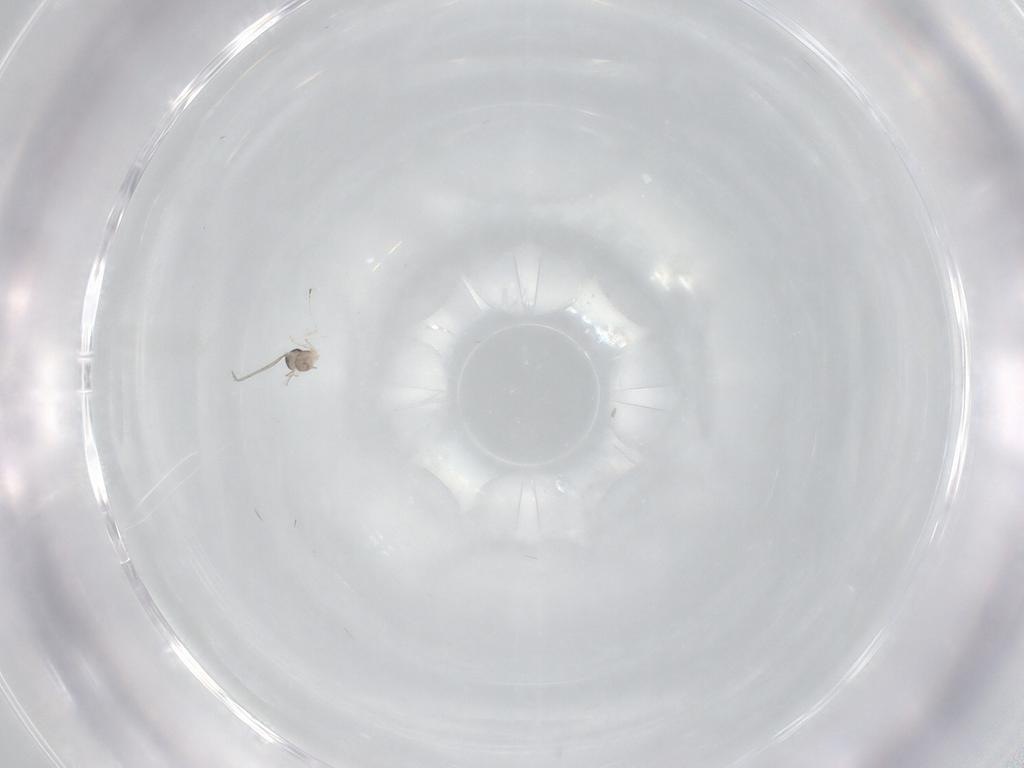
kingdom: Animalia
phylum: Arthropoda
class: Insecta
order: Diptera
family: Cecidomyiidae
